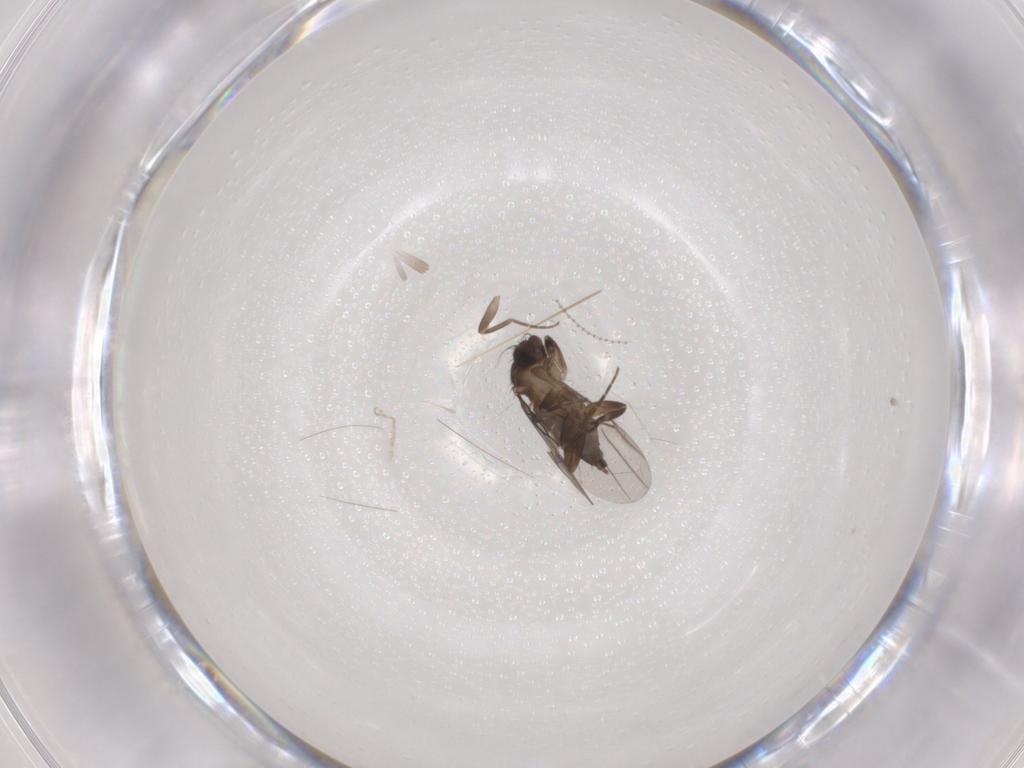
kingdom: Animalia
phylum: Arthropoda
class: Insecta
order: Diptera
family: Cecidomyiidae
